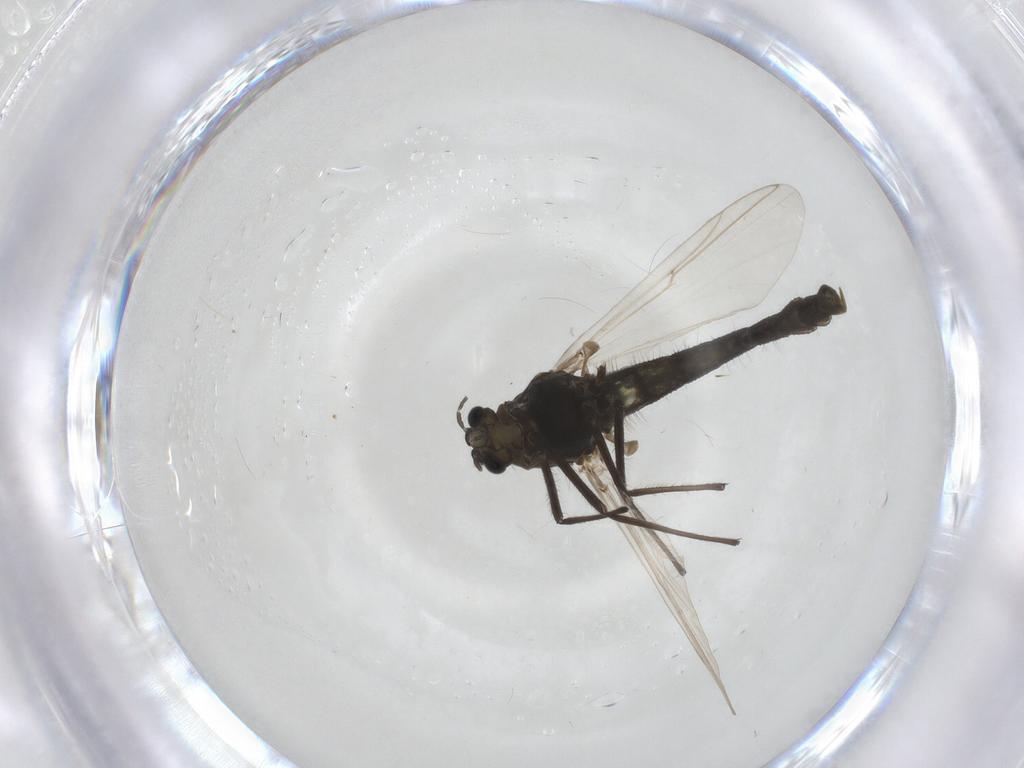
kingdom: Animalia
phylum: Arthropoda
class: Insecta
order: Diptera
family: Chironomidae
